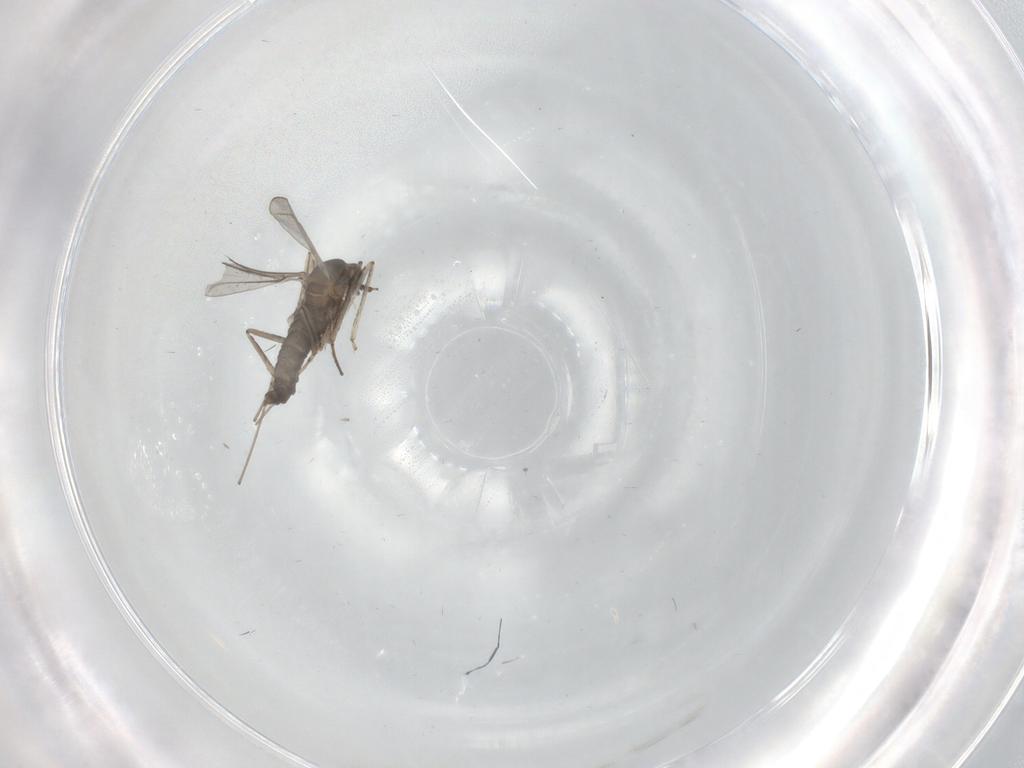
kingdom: Animalia
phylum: Arthropoda
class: Insecta
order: Diptera
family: Cecidomyiidae
